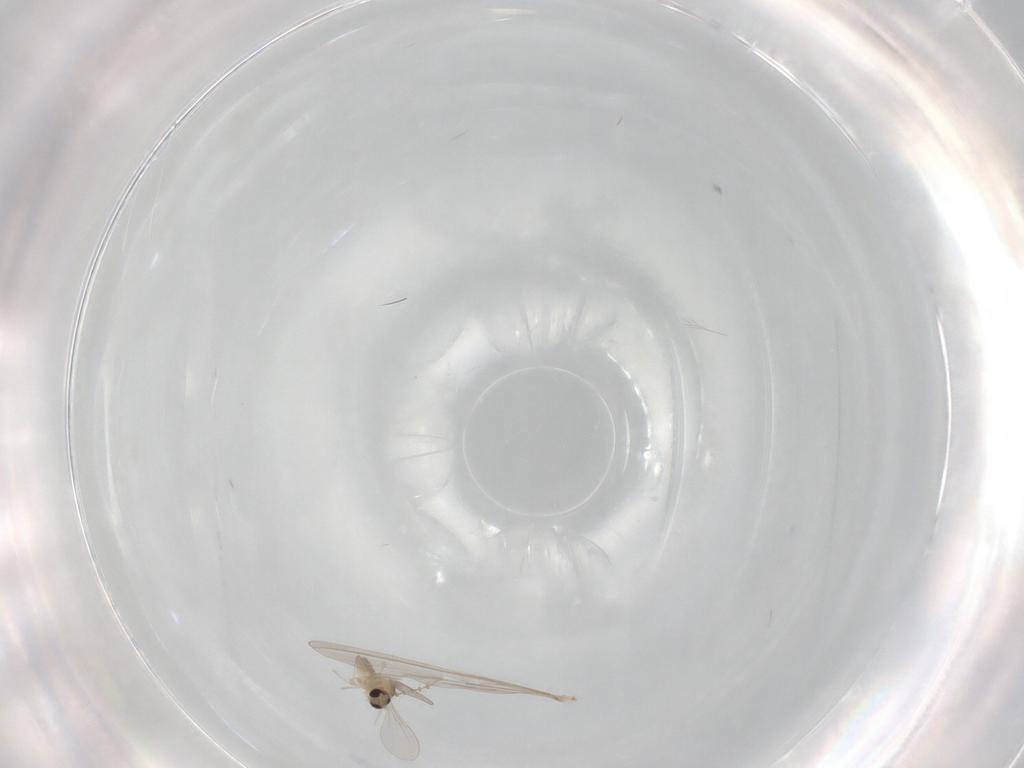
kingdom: Animalia
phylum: Arthropoda
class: Insecta
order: Diptera
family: Cecidomyiidae
